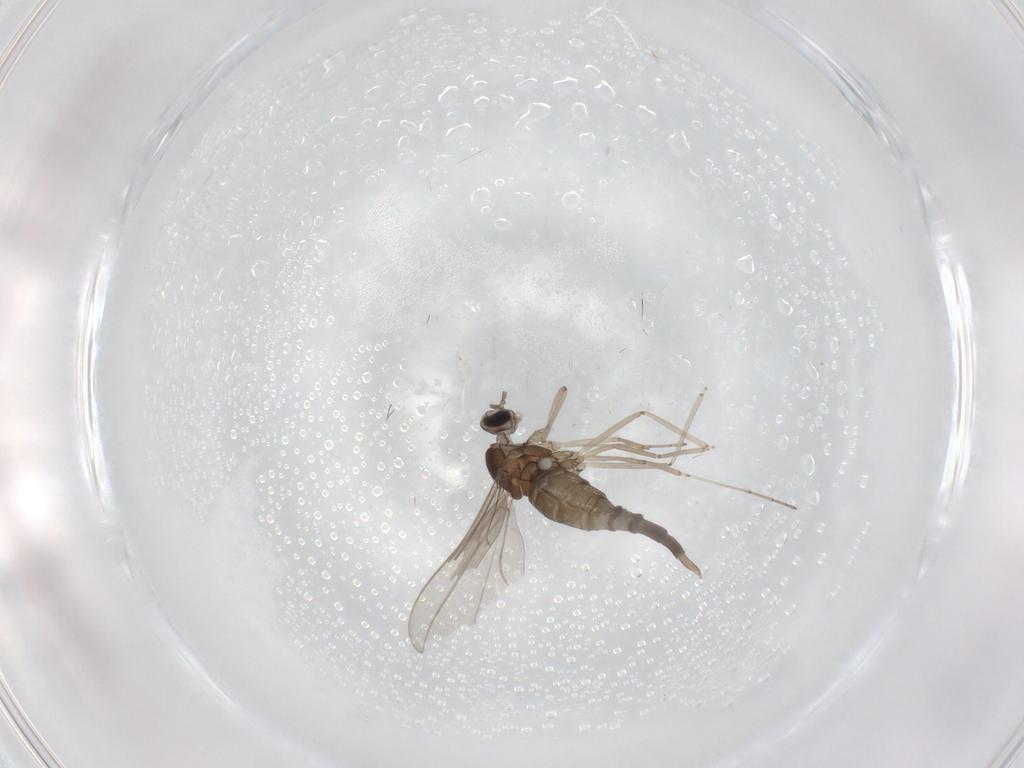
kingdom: Animalia
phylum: Arthropoda
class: Insecta
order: Diptera
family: Cecidomyiidae
